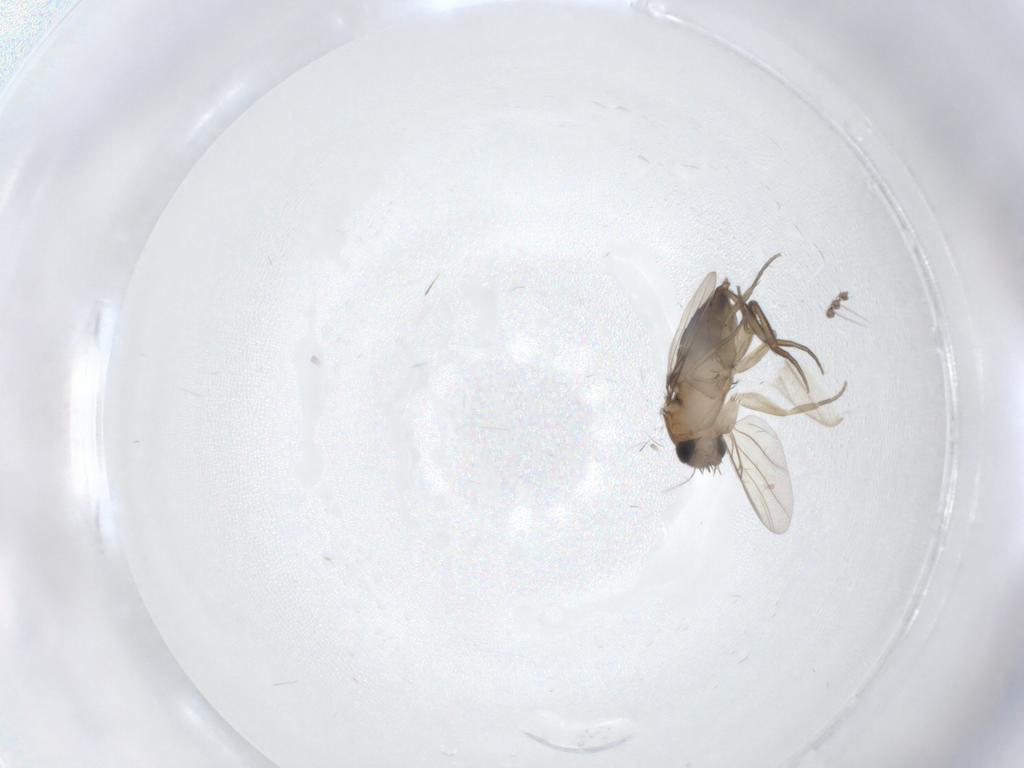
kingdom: Animalia
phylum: Arthropoda
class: Insecta
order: Diptera
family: Phoridae
